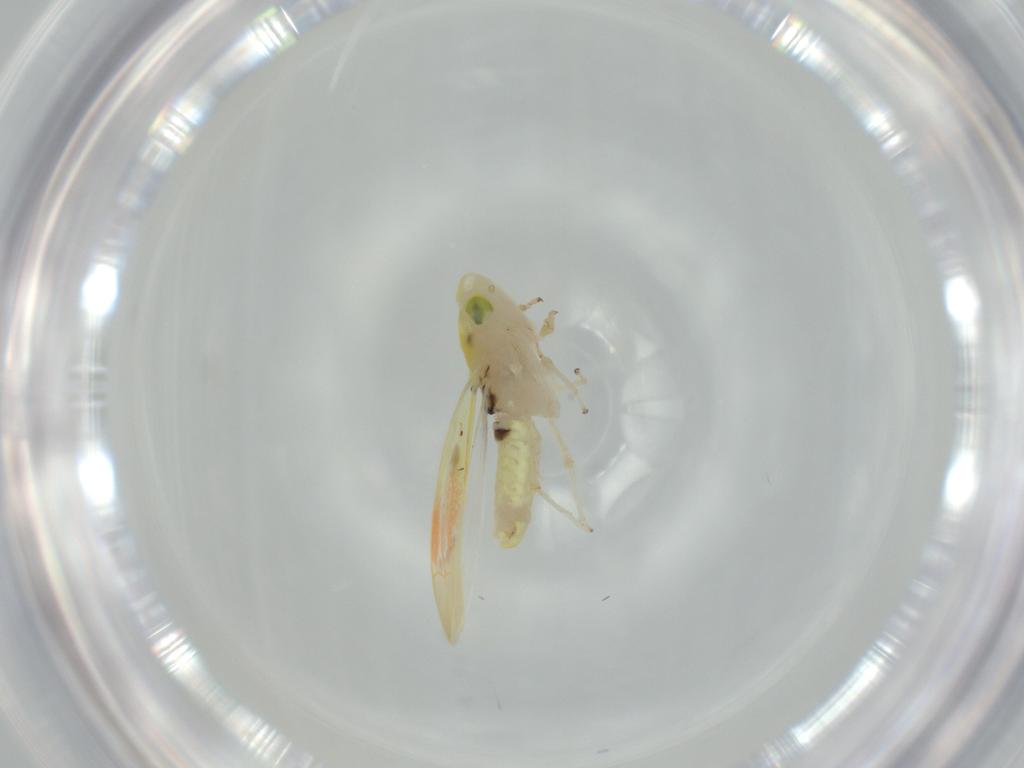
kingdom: Animalia
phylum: Arthropoda
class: Insecta
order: Hemiptera
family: Cicadellidae
